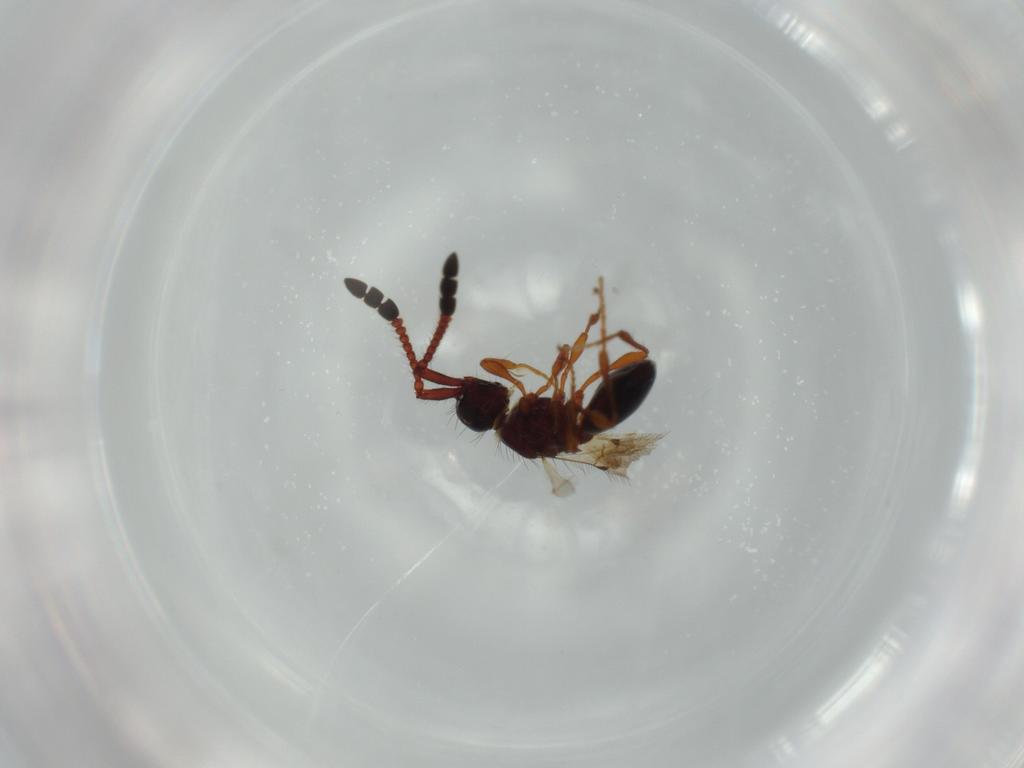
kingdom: Animalia
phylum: Arthropoda
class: Insecta
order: Hymenoptera
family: Diapriidae
